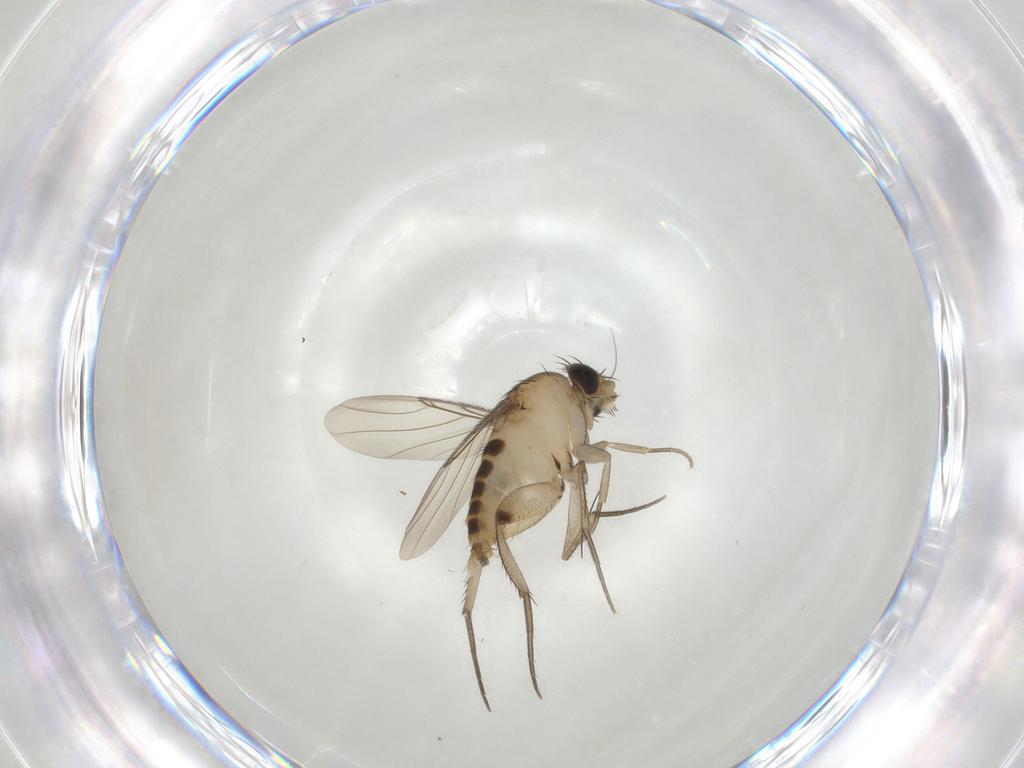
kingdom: Animalia
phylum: Arthropoda
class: Insecta
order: Diptera
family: Phoridae
